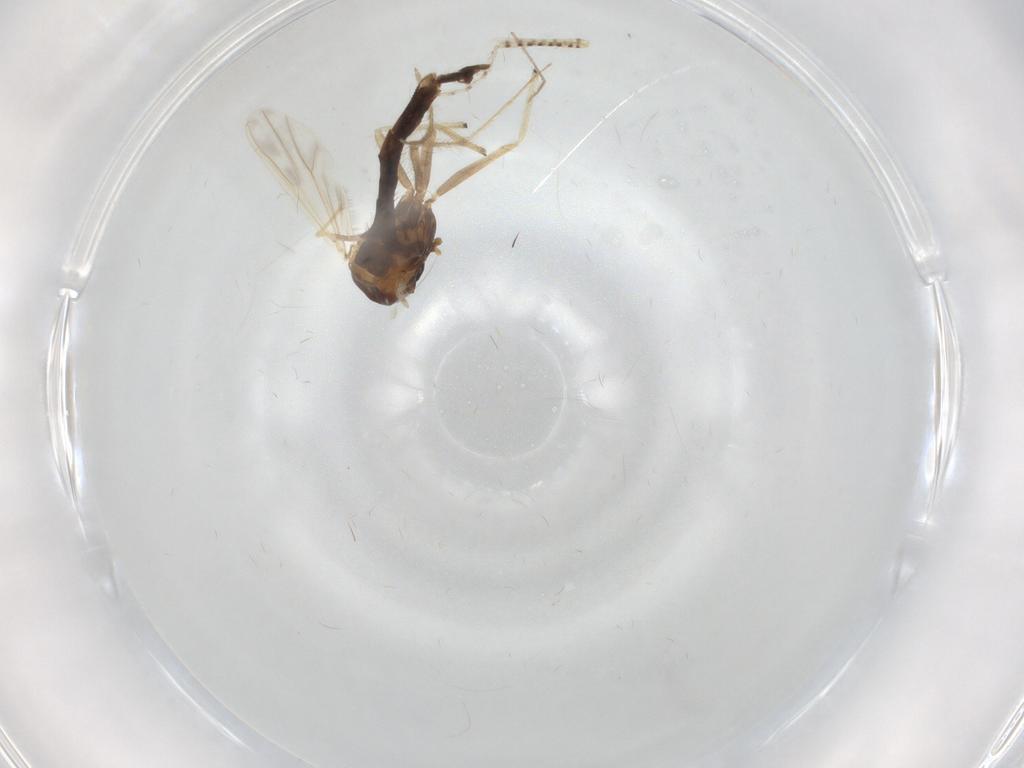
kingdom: Animalia
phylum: Arthropoda
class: Insecta
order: Diptera
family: Chironomidae
